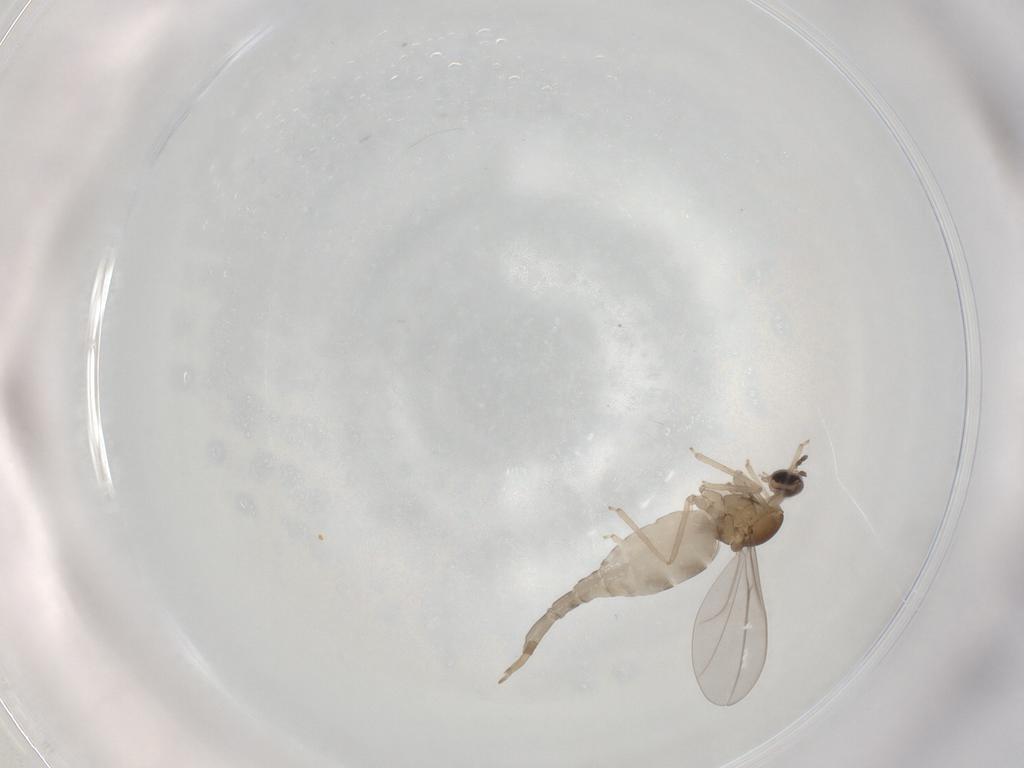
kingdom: Animalia
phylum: Arthropoda
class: Insecta
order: Diptera
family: Cecidomyiidae
